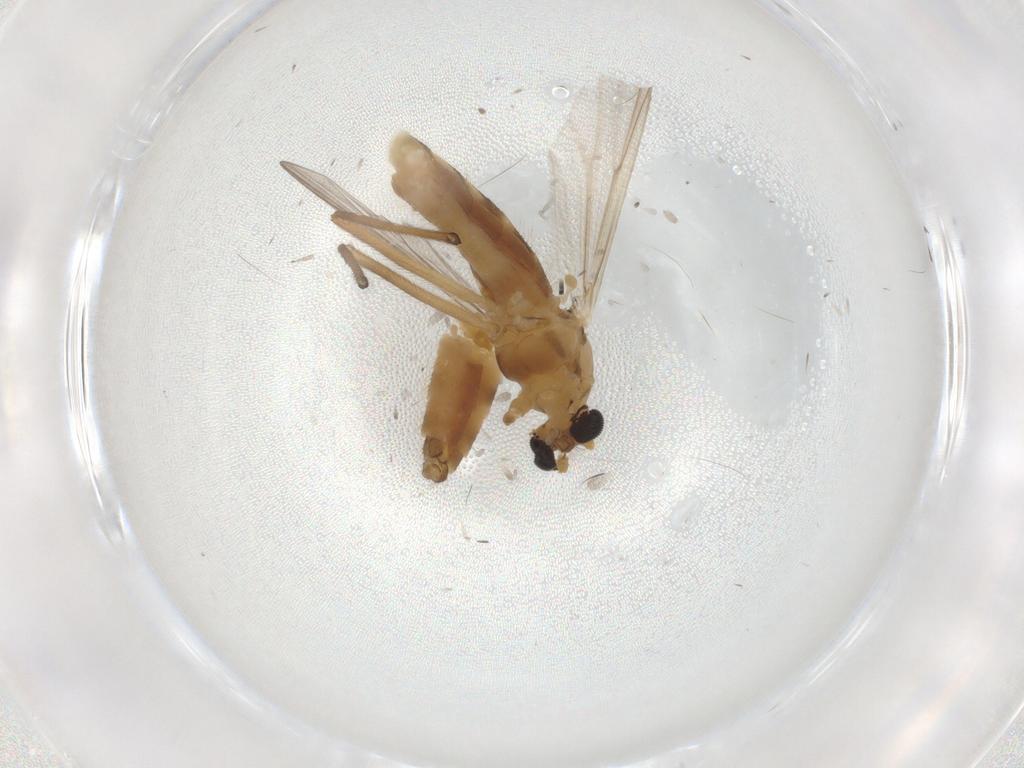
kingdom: Animalia
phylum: Arthropoda
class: Insecta
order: Diptera
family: Chironomidae
